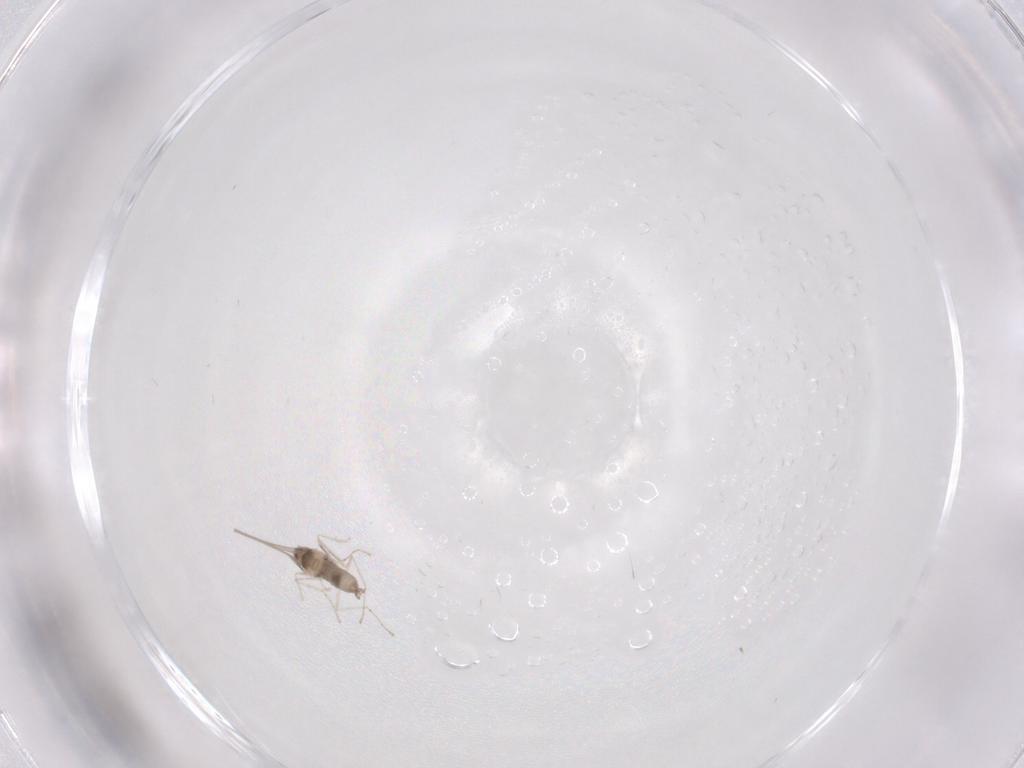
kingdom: Animalia
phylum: Arthropoda
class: Insecta
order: Diptera
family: Cecidomyiidae
